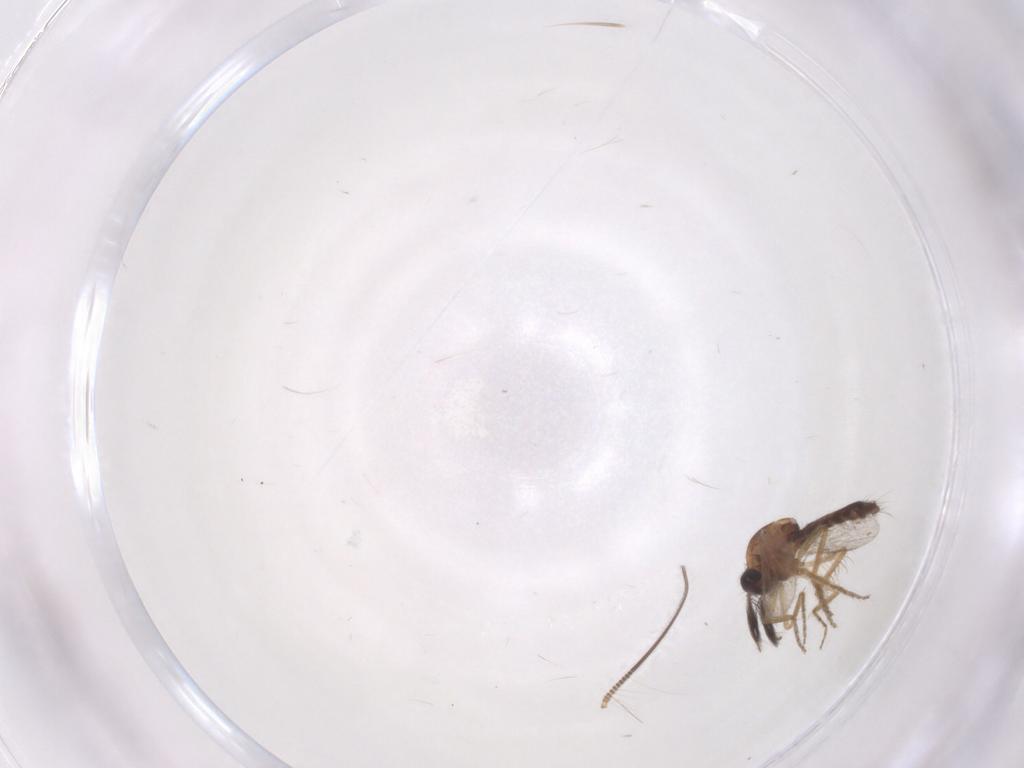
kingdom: Animalia
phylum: Arthropoda
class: Insecta
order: Diptera
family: Ceratopogonidae
